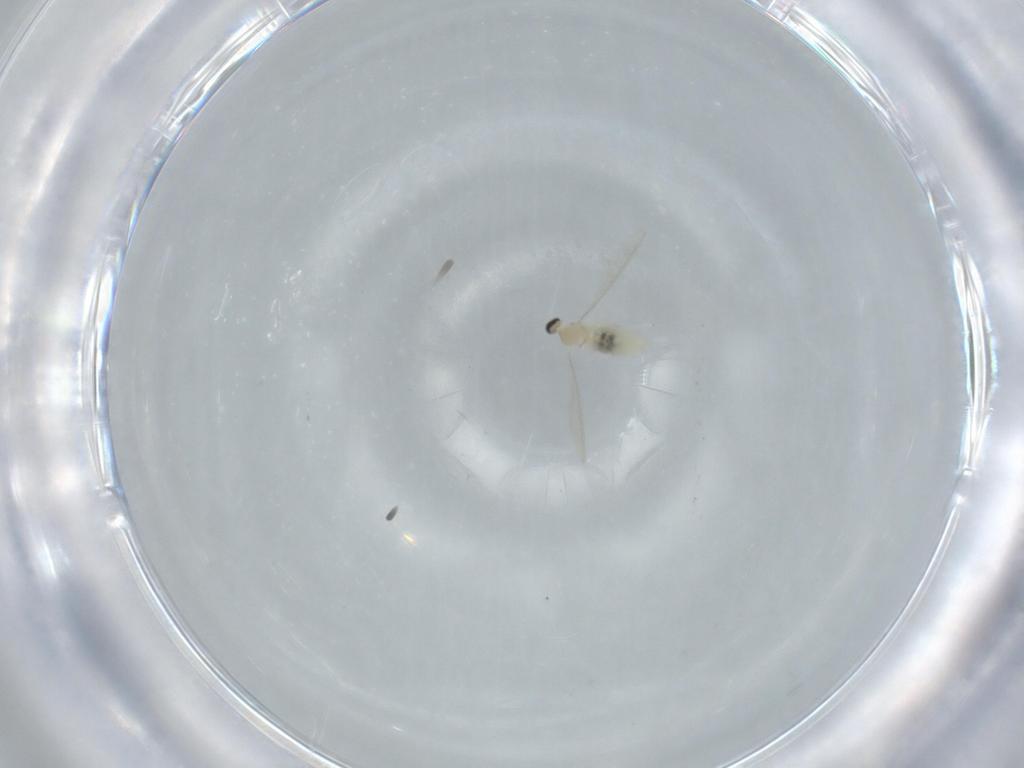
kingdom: Animalia
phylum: Arthropoda
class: Insecta
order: Diptera
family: Cecidomyiidae
